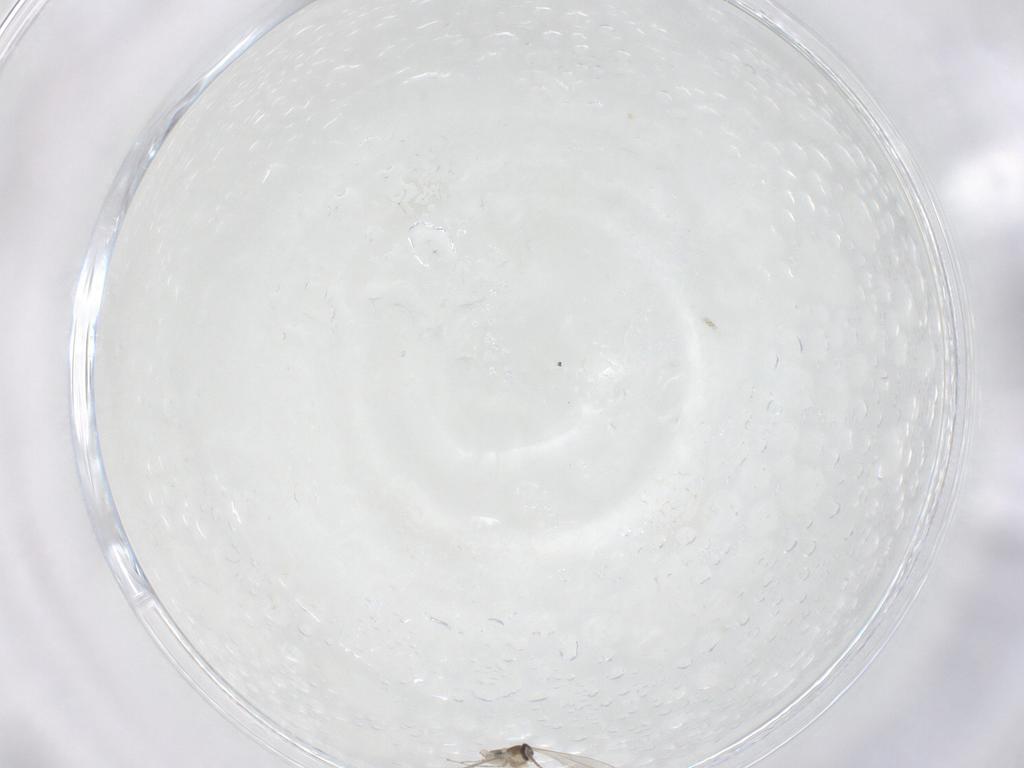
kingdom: Animalia
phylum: Arthropoda
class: Insecta
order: Diptera
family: Cecidomyiidae
